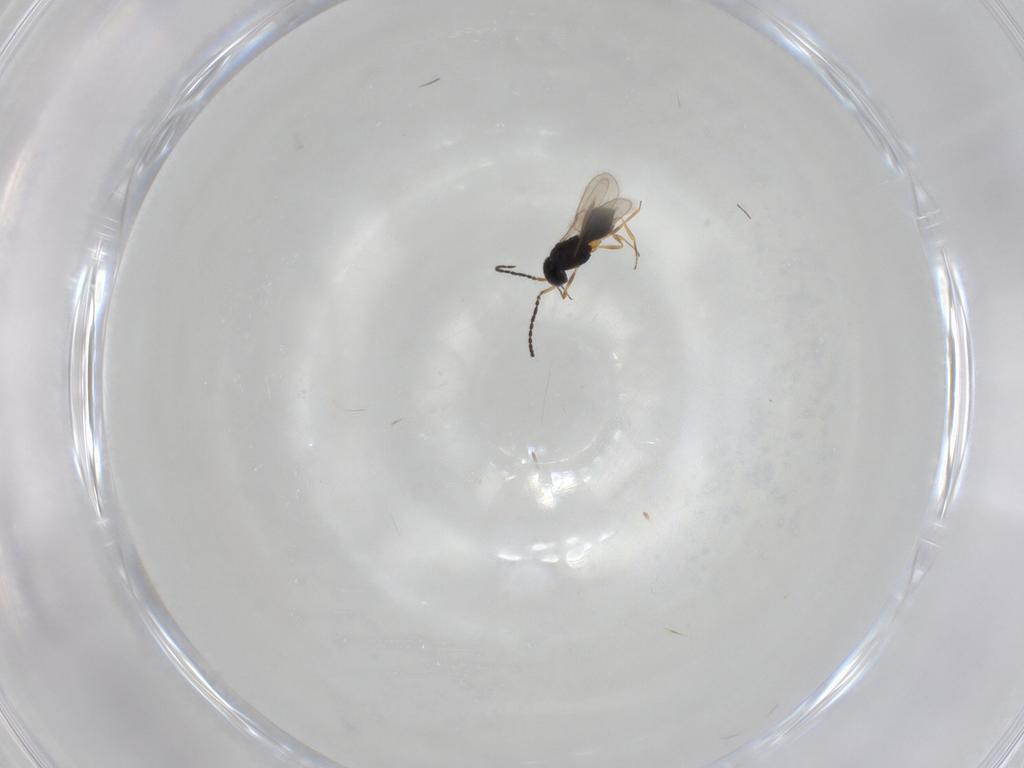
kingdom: Animalia
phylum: Arthropoda
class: Insecta
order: Hymenoptera
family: Scelionidae
